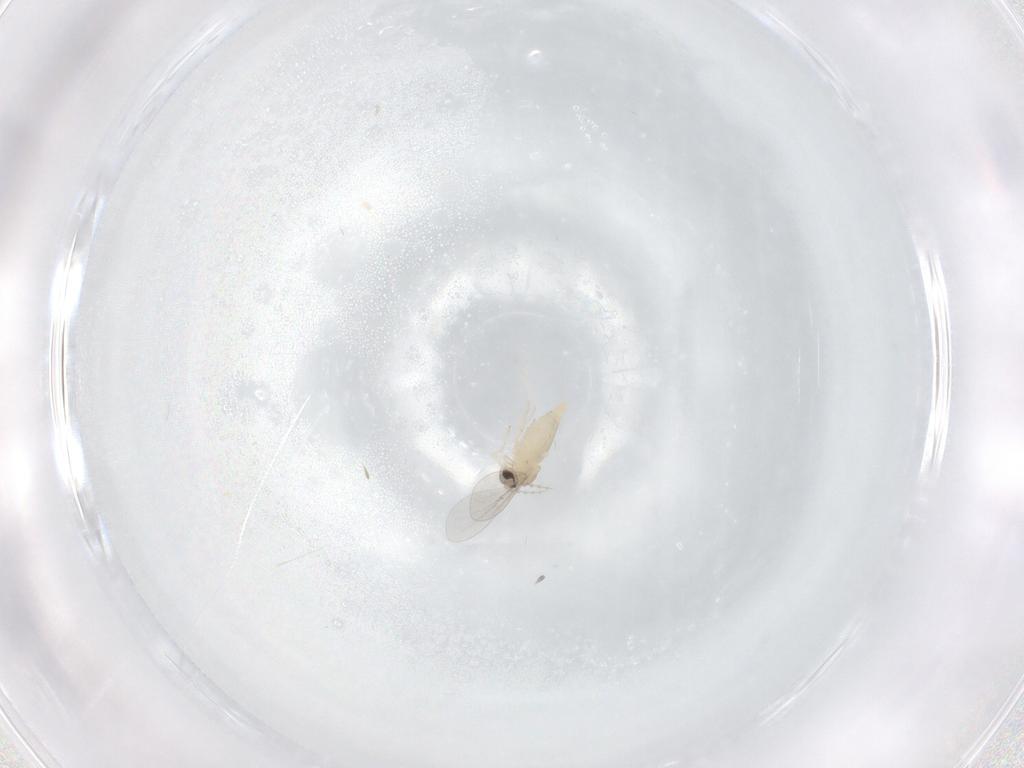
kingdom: Animalia
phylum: Arthropoda
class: Insecta
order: Diptera
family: Cecidomyiidae
